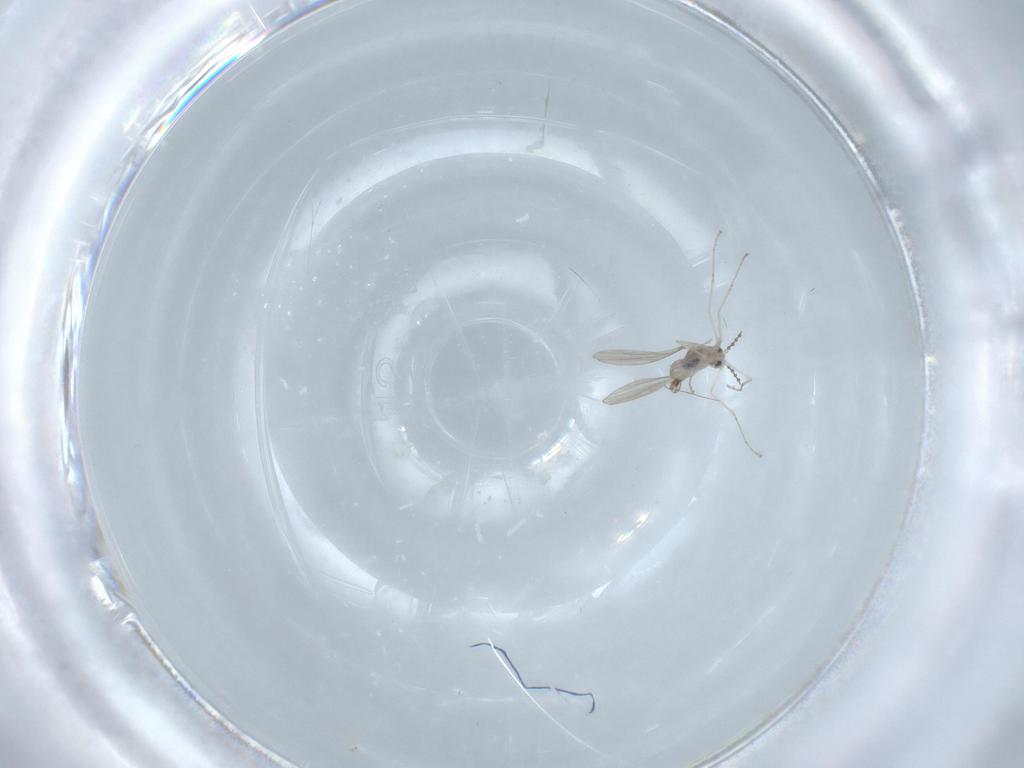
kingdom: Animalia
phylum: Arthropoda
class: Insecta
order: Diptera
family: Cecidomyiidae
